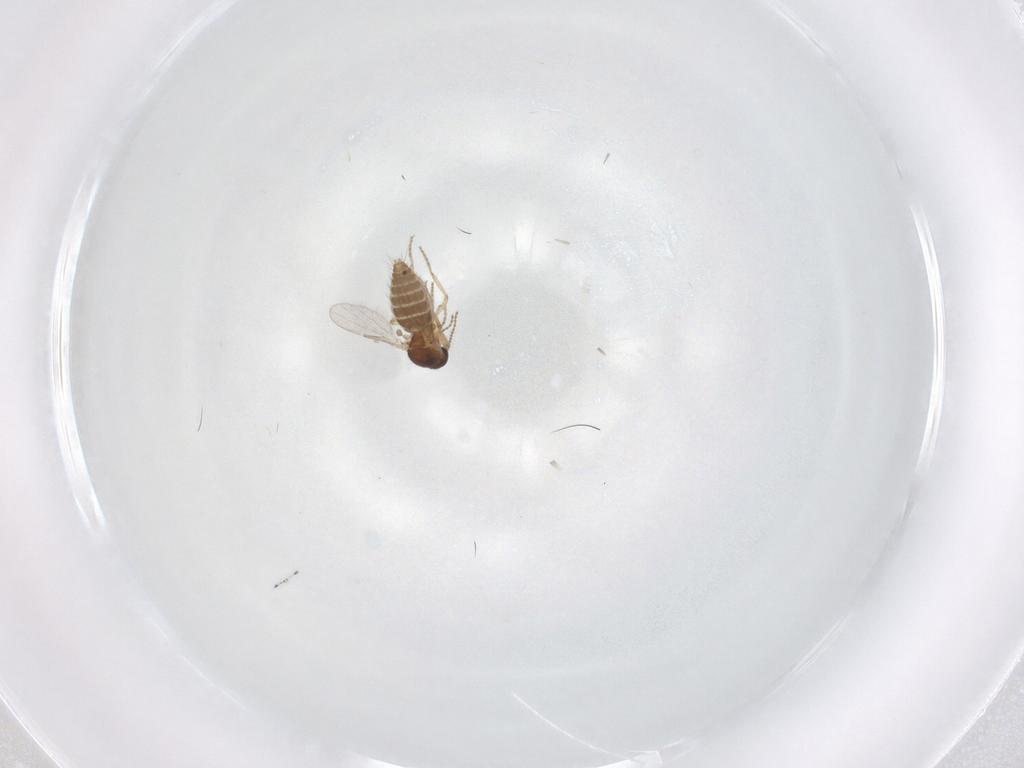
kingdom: Animalia
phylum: Arthropoda
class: Insecta
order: Diptera
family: Ceratopogonidae
